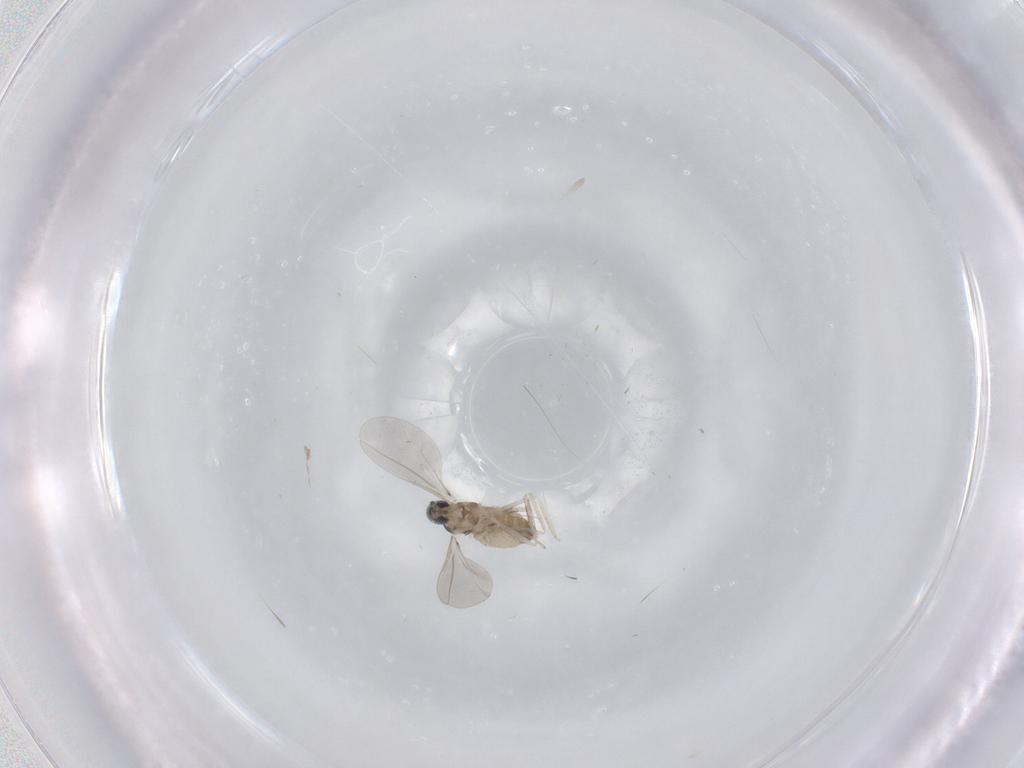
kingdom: Animalia
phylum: Arthropoda
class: Insecta
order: Diptera
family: Cecidomyiidae
